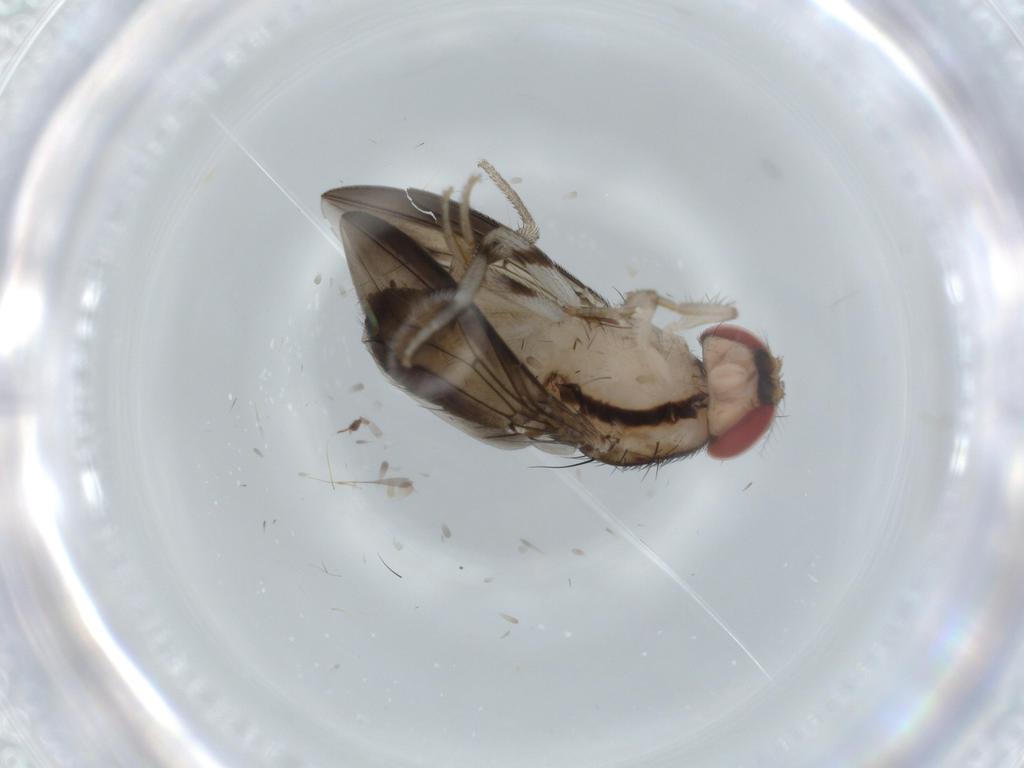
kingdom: Animalia
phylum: Arthropoda
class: Insecta
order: Diptera
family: Drosophilidae
